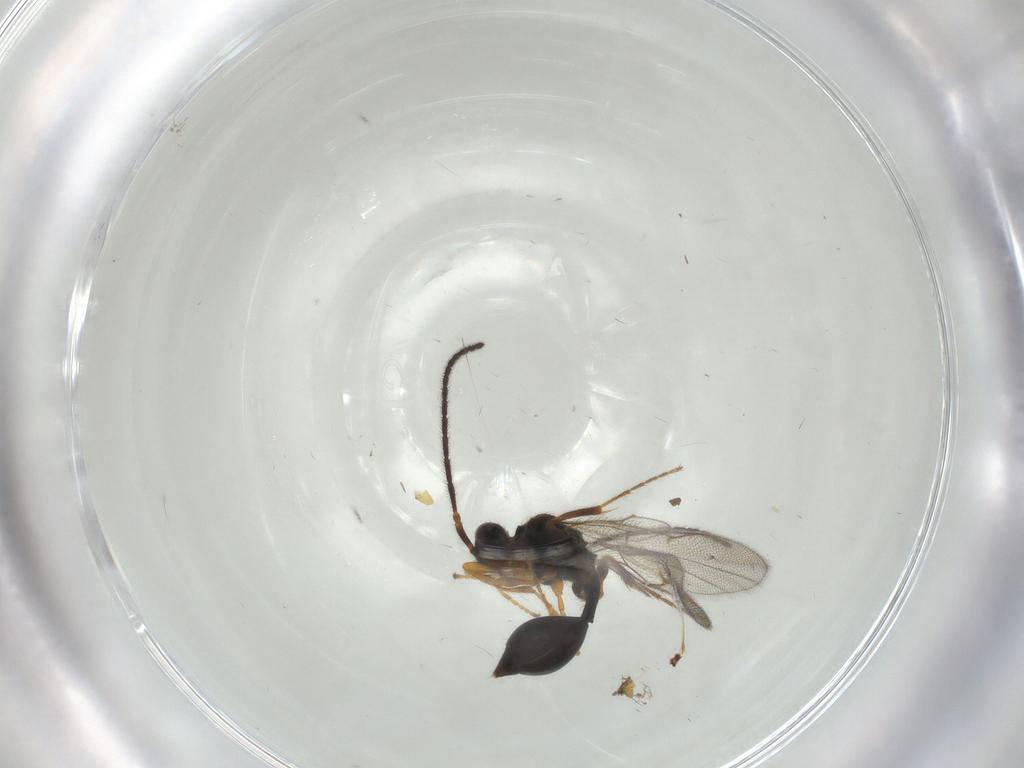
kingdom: Animalia
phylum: Arthropoda
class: Insecta
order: Hymenoptera
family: Diapriidae
